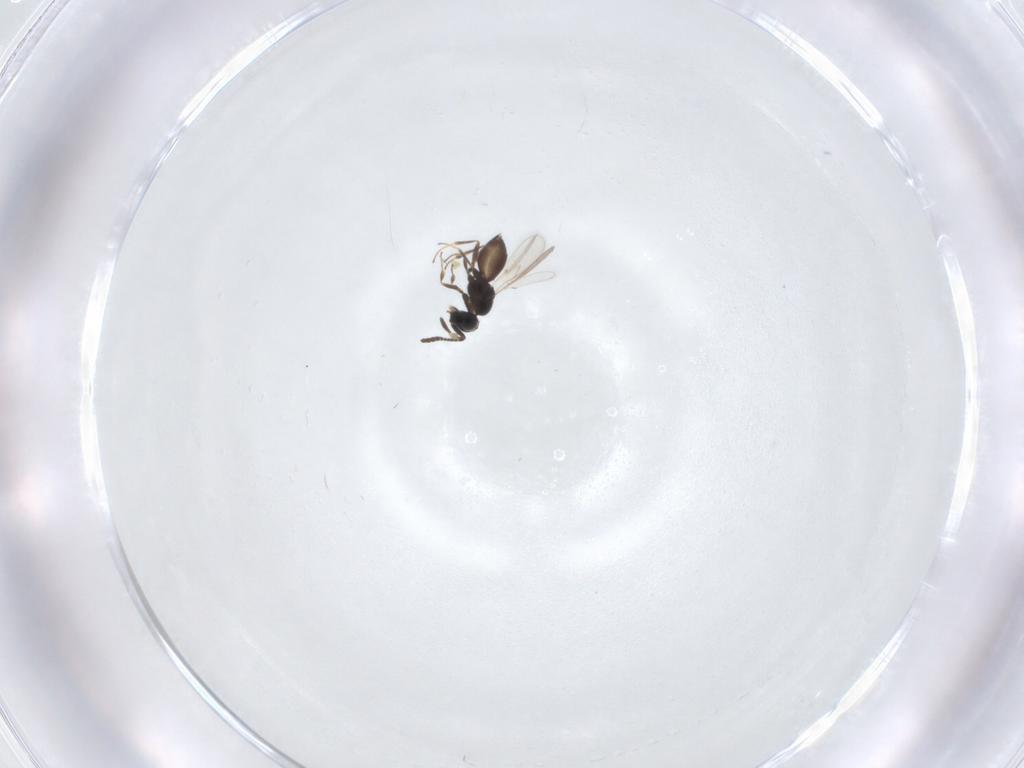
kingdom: Animalia
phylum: Arthropoda
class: Insecta
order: Hymenoptera
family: Scelionidae
